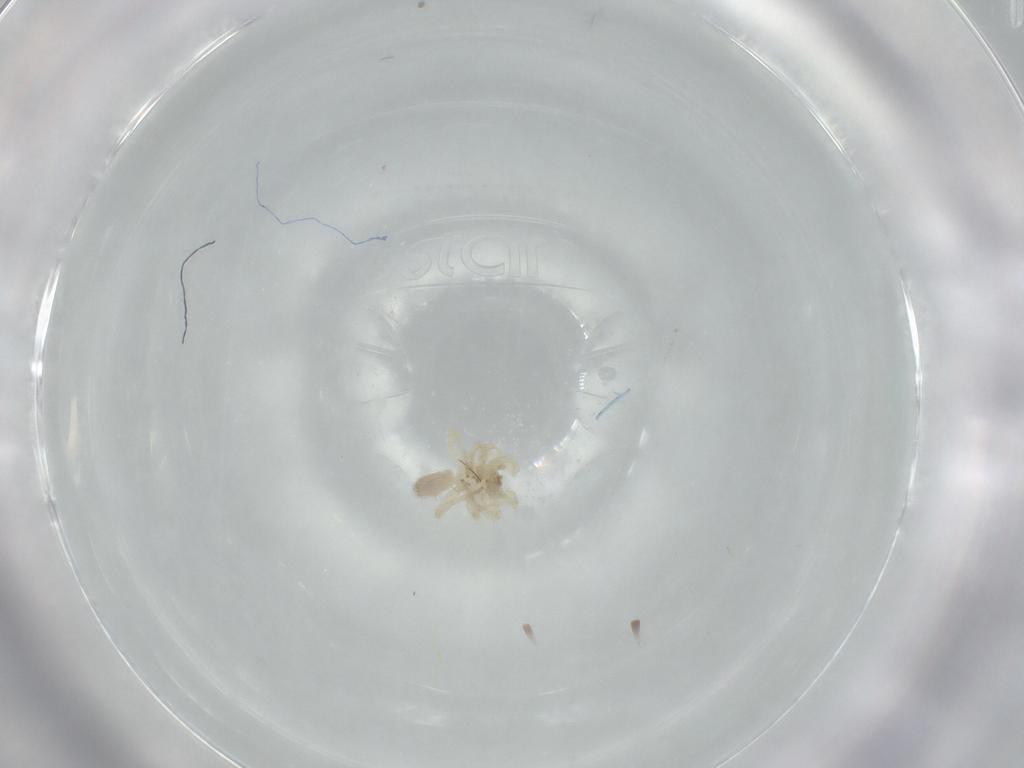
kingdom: Animalia
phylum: Arthropoda
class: Arachnida
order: Araneae
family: Oonopidae
